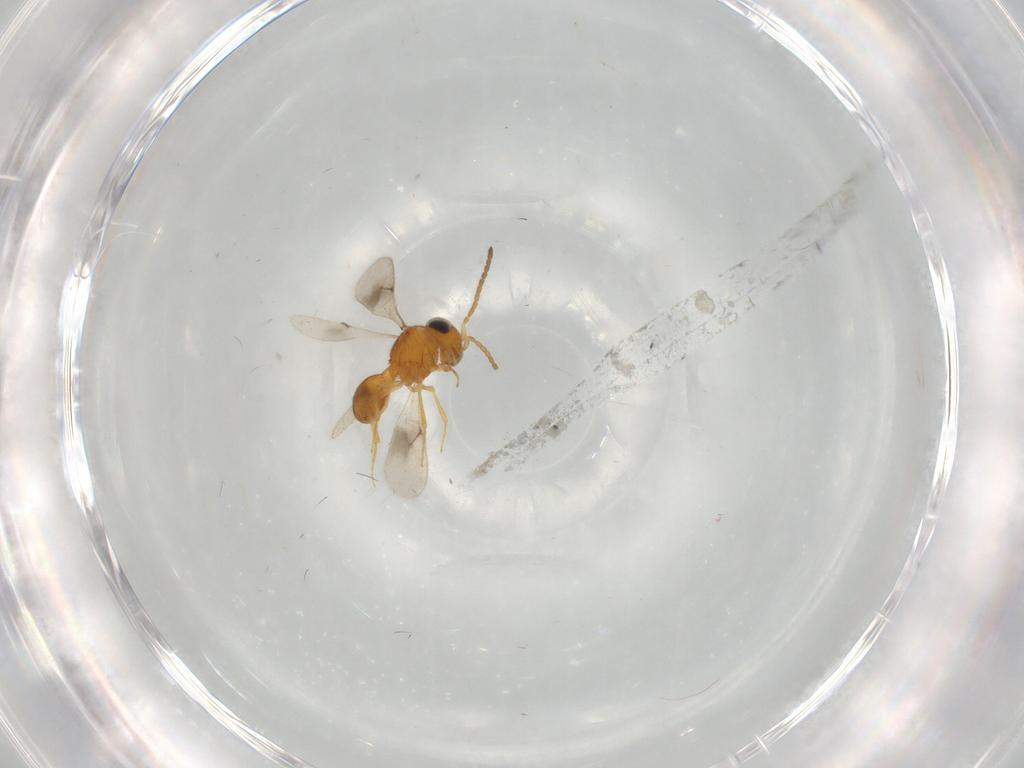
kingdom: Animalia
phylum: Arthropoda
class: Insecta
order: Hymenoptera
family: Scelionidae
